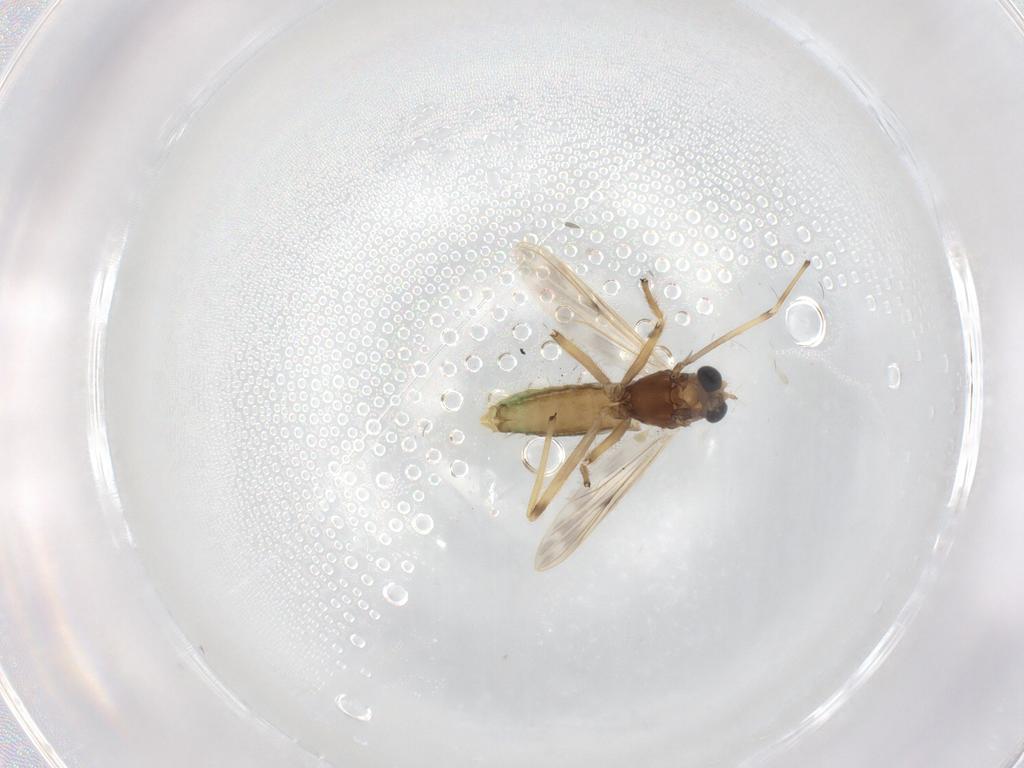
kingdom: Animalia
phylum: Arthropoda
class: Insecta
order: Diptera
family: Chironomidae
